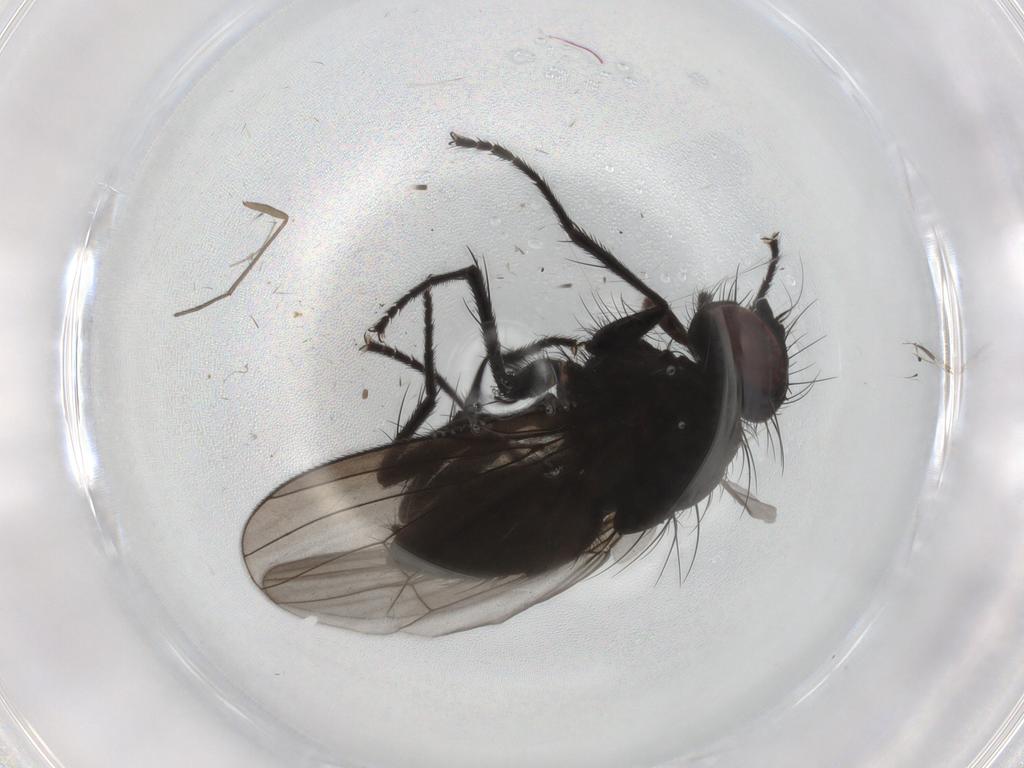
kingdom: Animalia
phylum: Arthropoda
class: Insecta
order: Diptera
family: Muscidae
